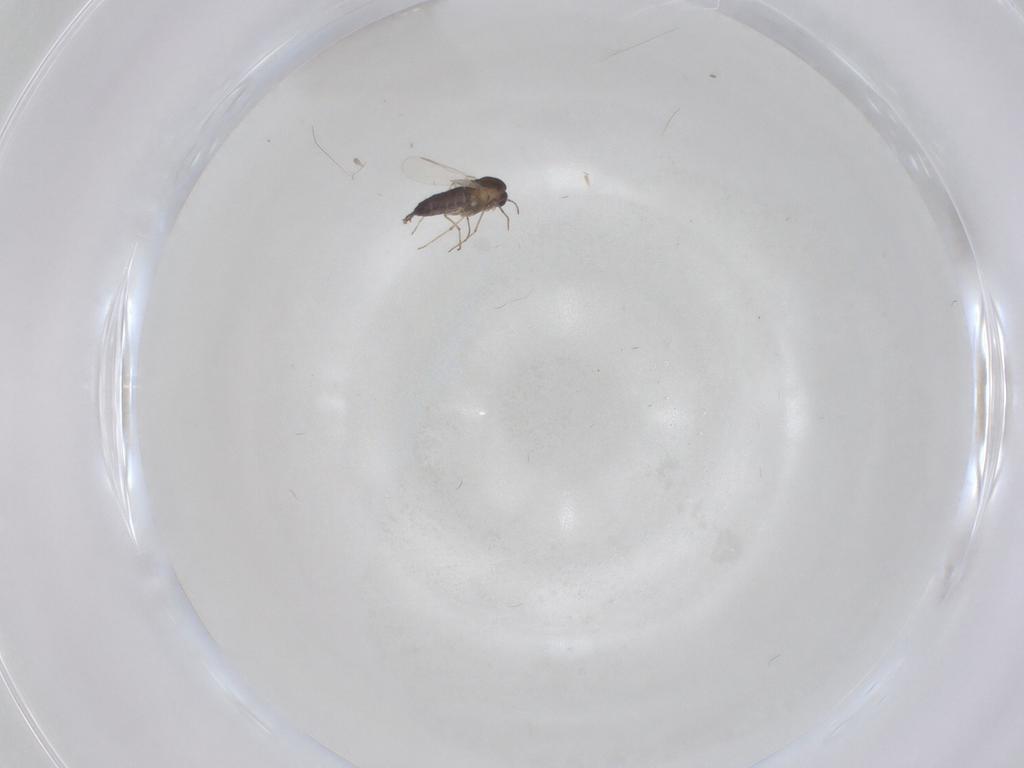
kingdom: Animalia
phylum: Arthropoda
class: Insecta
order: Diptera
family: Chironomidae
